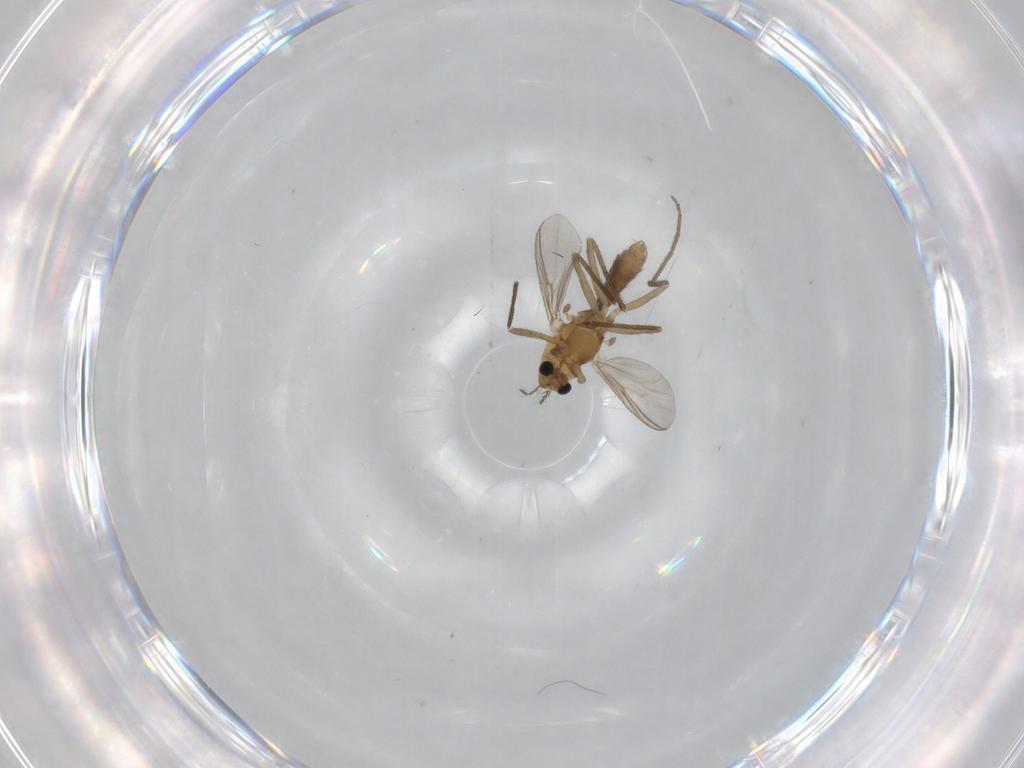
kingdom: Animalia
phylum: Arthropoda
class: Insecta
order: Diptera
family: Chironomidae
